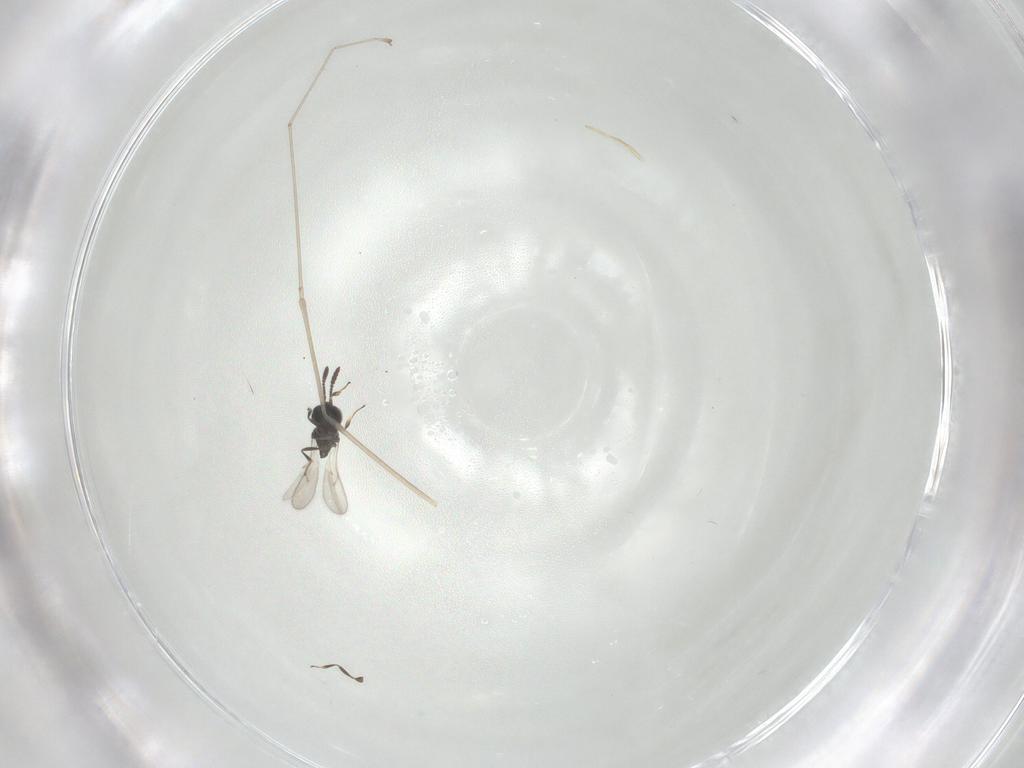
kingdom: Animalia
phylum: Arthropoda
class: Insecta
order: Hymenoptera
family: Scelionidae
